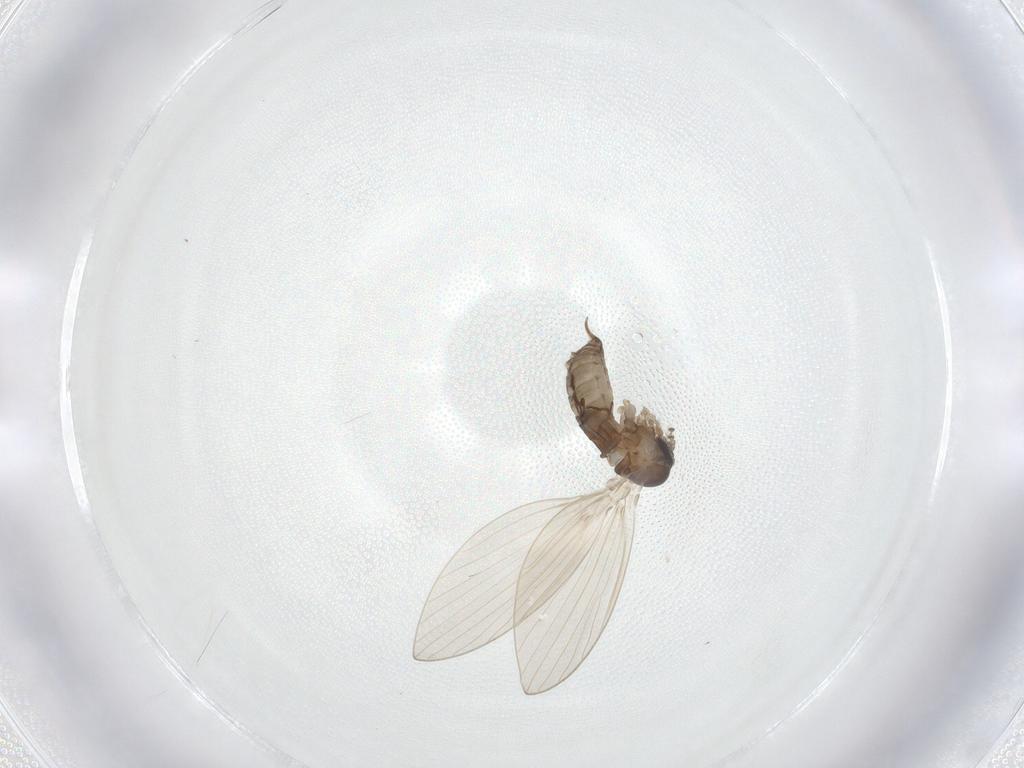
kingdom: Animalia
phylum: Arthropoda
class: Insecta
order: Diptera
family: Psychodidae
